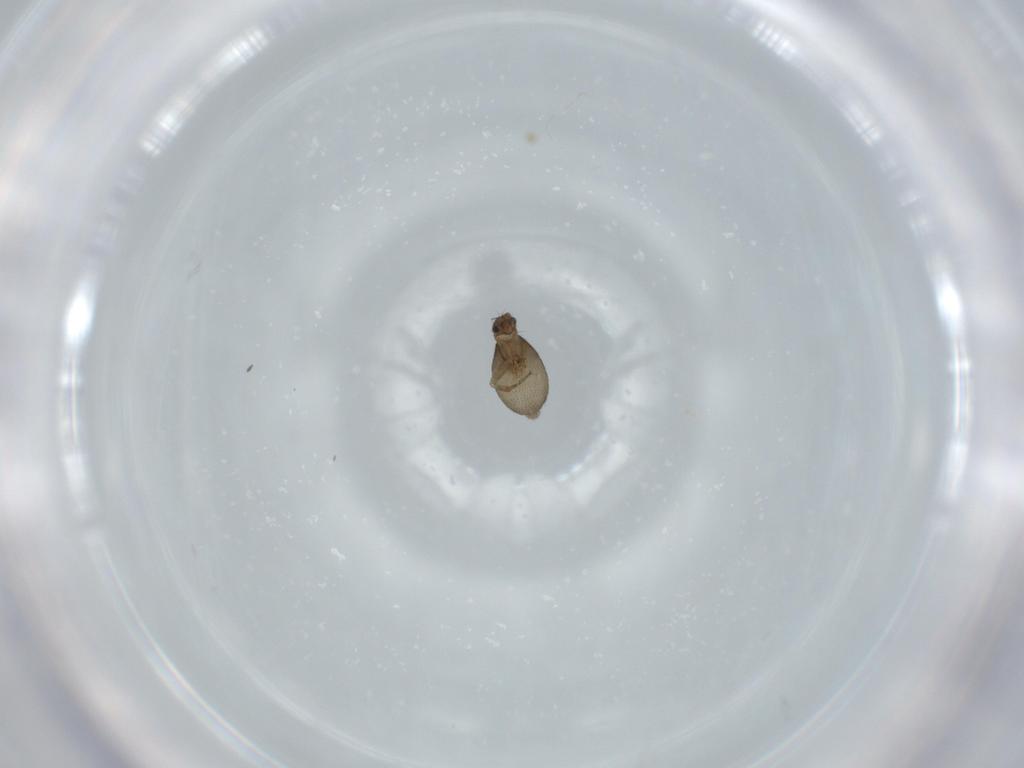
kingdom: Animalia
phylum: Arthropoda
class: Insecta
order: Diptera
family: Phoridae
